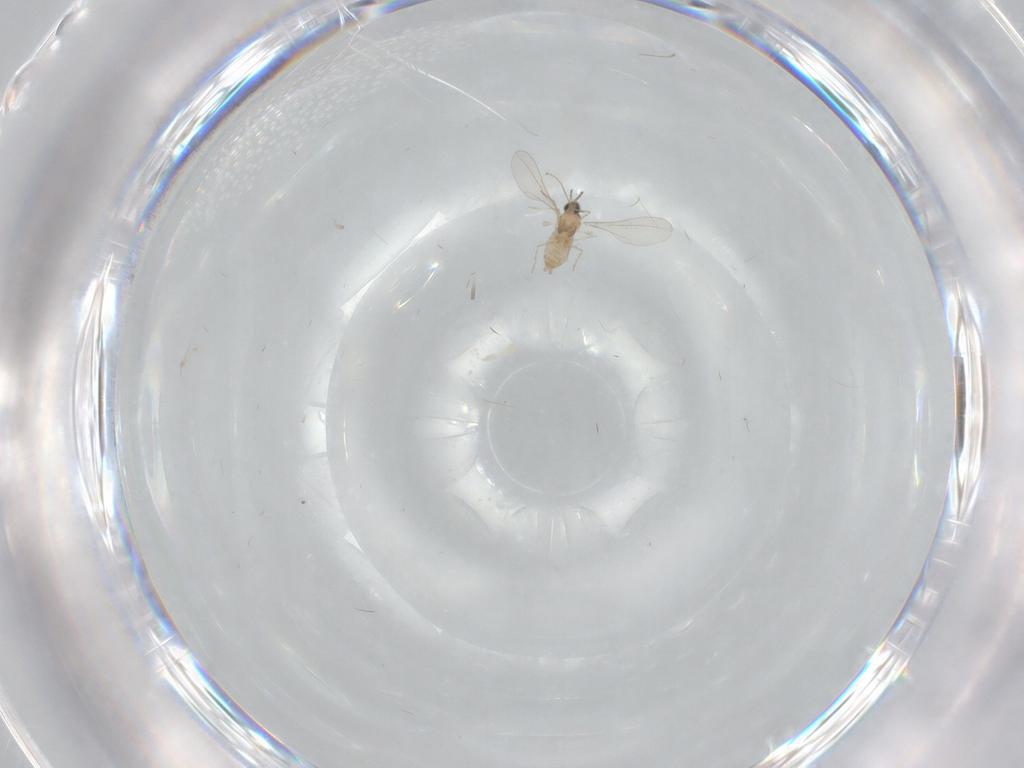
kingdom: Animalia
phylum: Arthropoda
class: Insecta
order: Diptera
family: Cecidomyiidae
